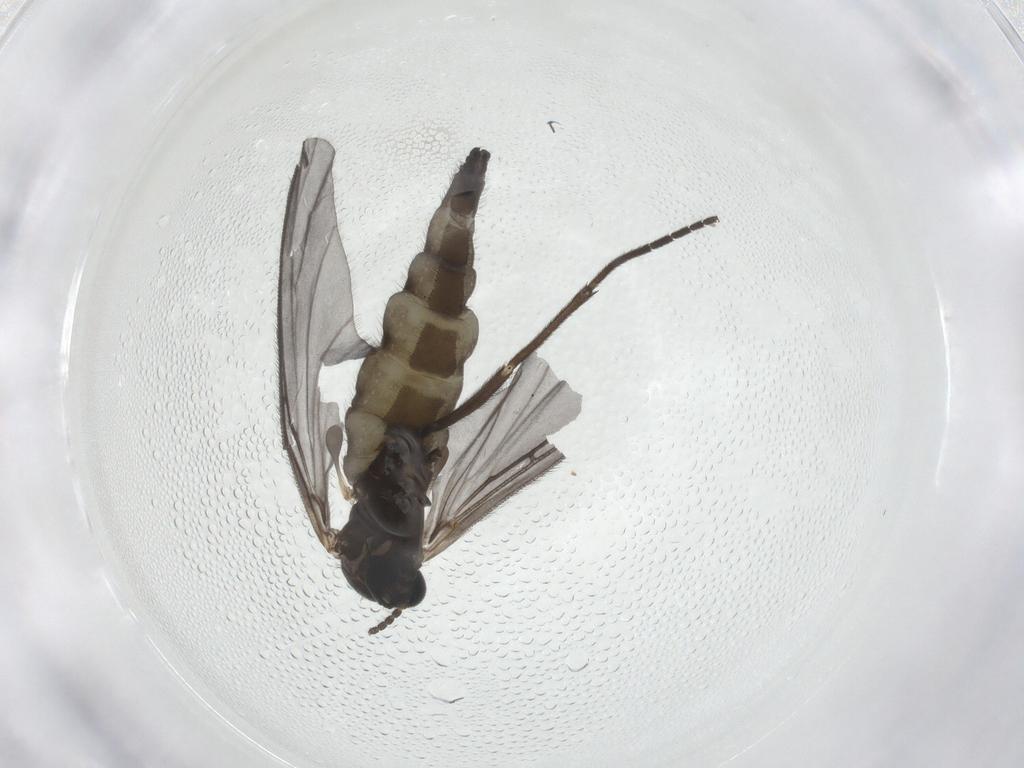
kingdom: Animalia
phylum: Arthropoda
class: Insecta
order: Diptera
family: Sciaridae
